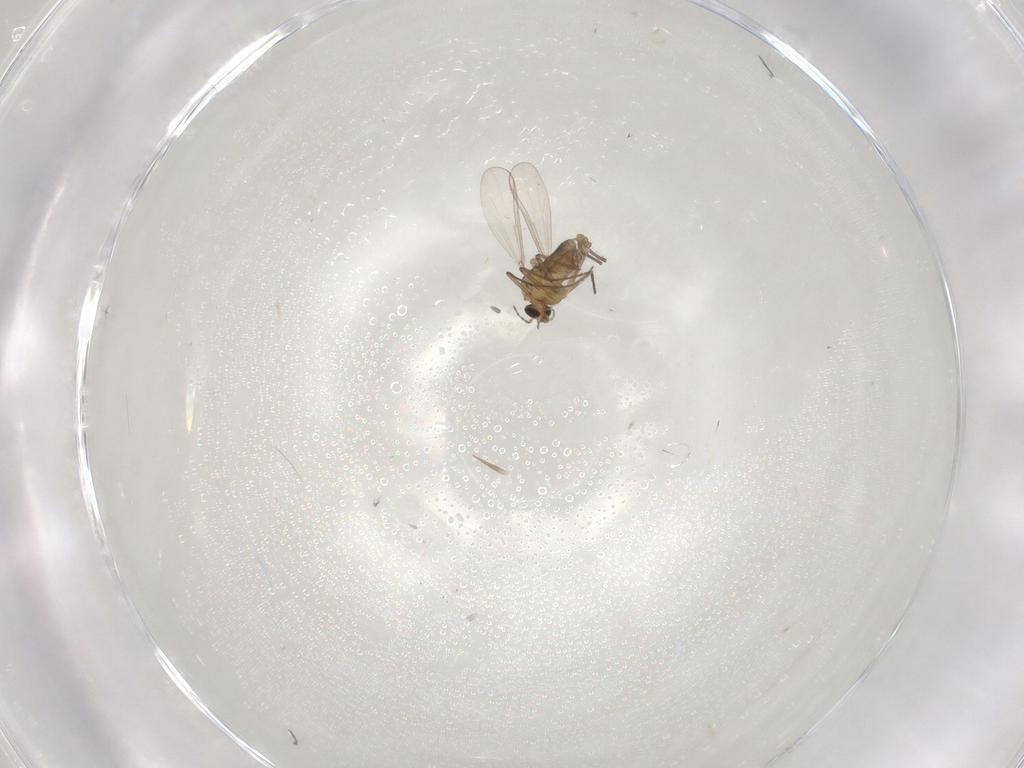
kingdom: Animalia
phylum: Arthropoda
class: Insecta
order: Diptera
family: Chironomidae
